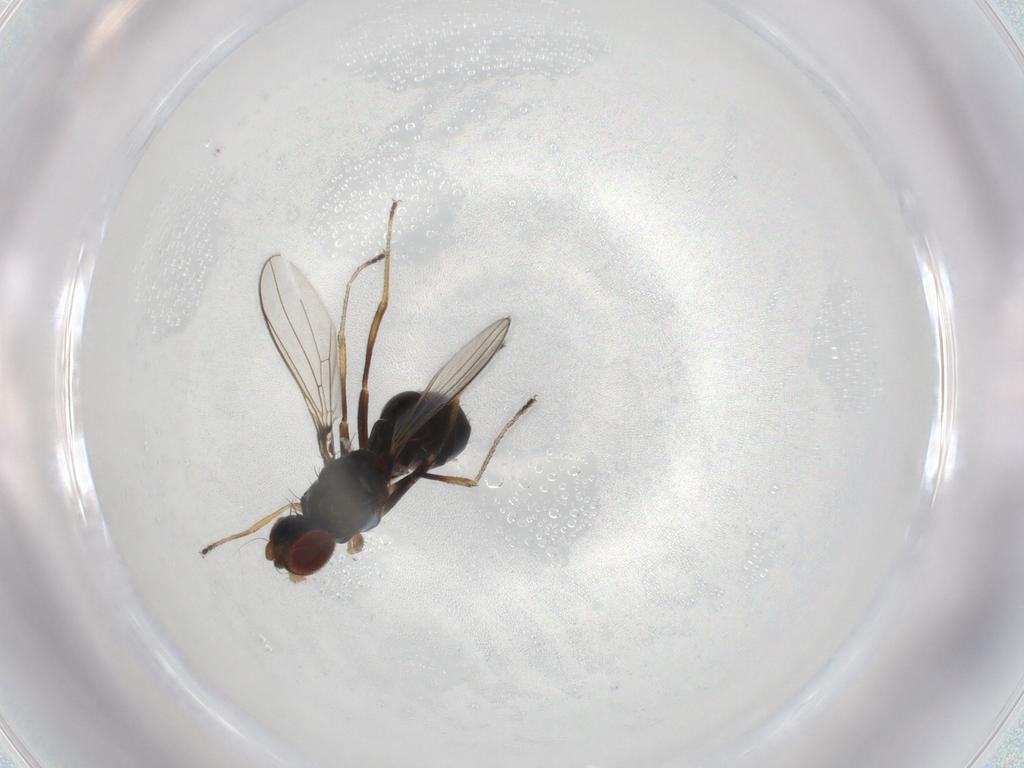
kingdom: Animalia
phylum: Arthropoda
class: Insecta
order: Diptera
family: Sepsidae
